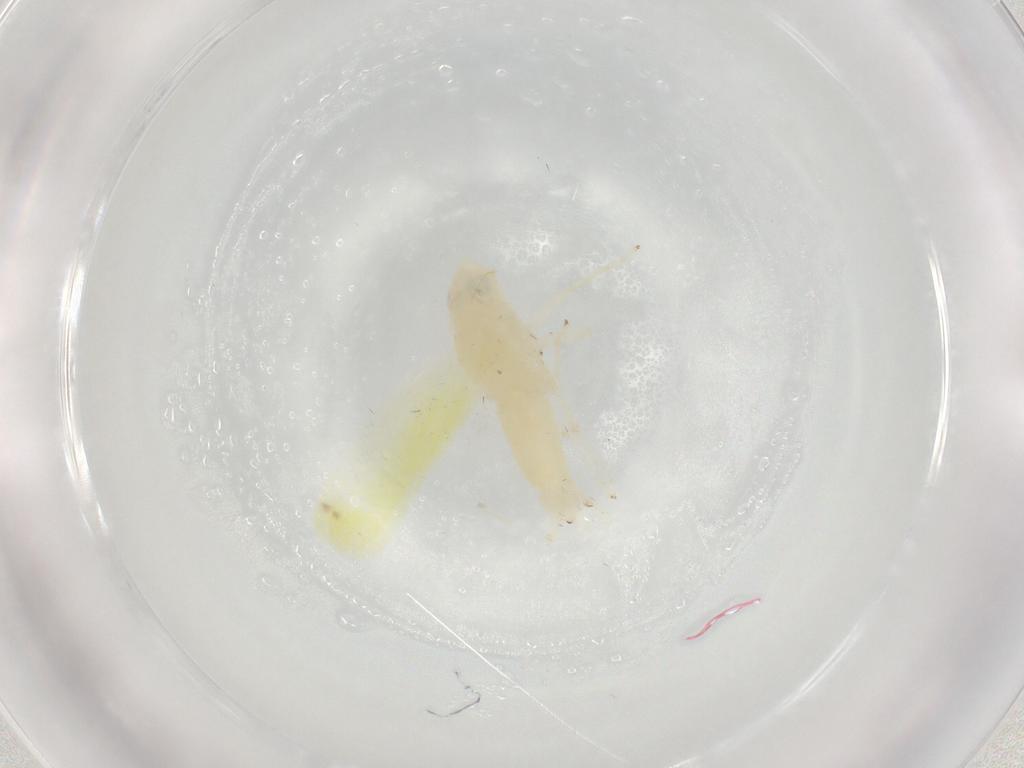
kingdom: Animalia
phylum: Arthropoda
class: Insecta
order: Hemiptera
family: Cicadellidae
